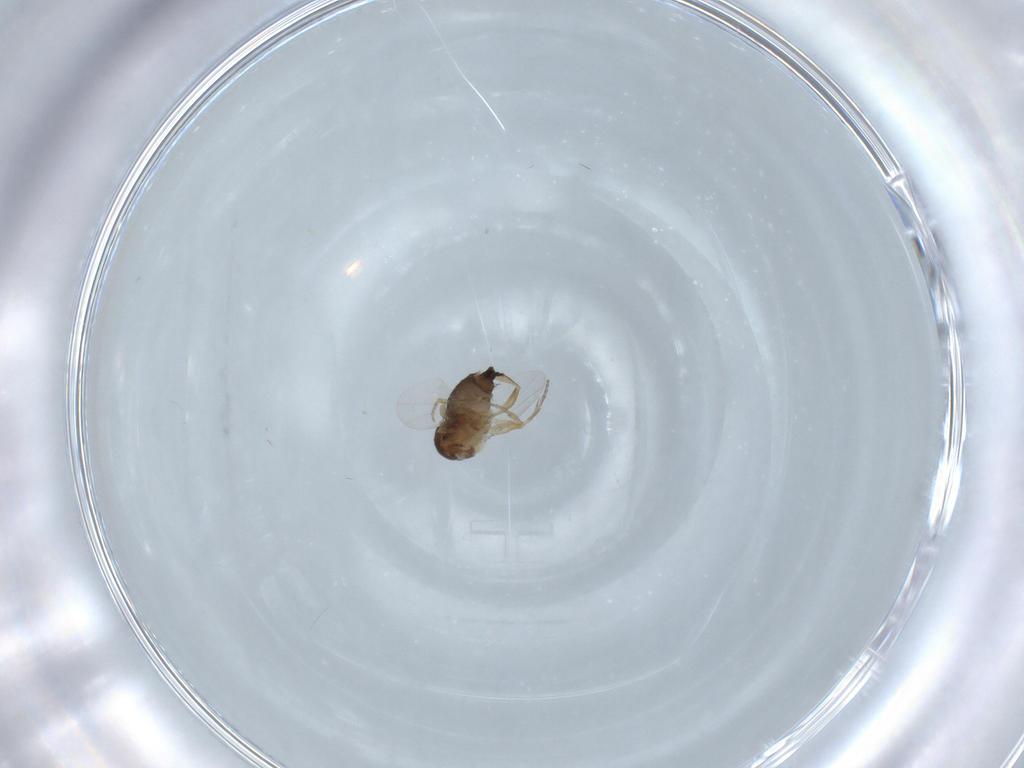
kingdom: Animalia
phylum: Arthropoda
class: Insecta
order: Diptera
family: Phoridae
